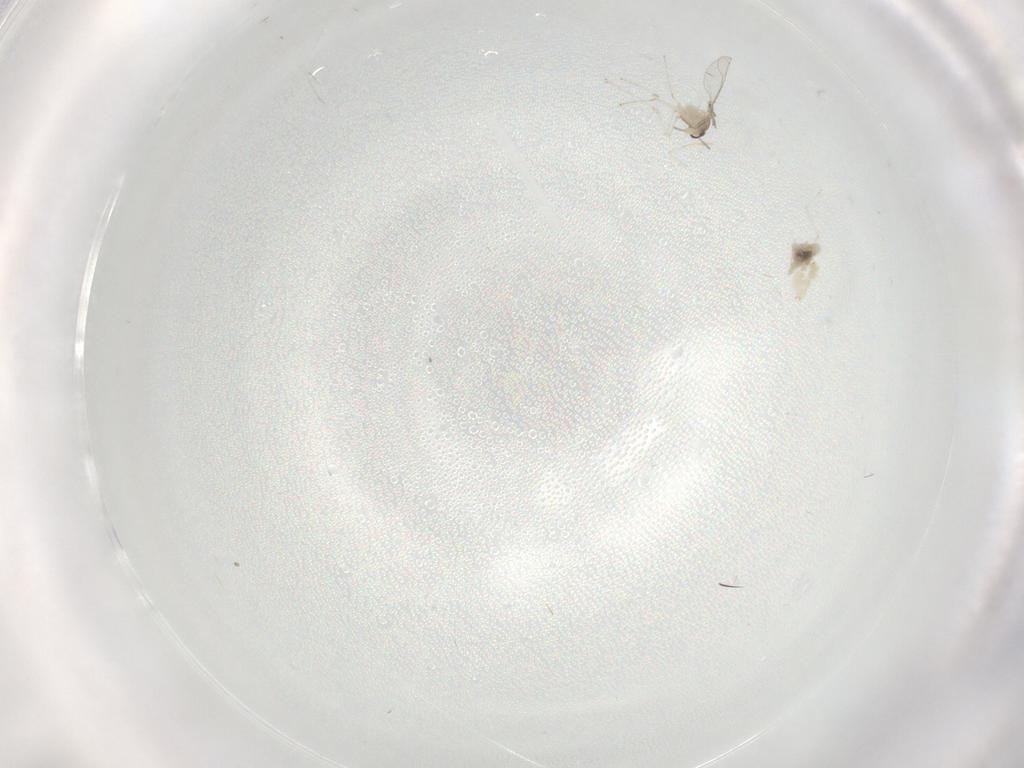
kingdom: Animalia
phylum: Arthropoda
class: Insecta
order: Diptera
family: Cecidomyiidae
